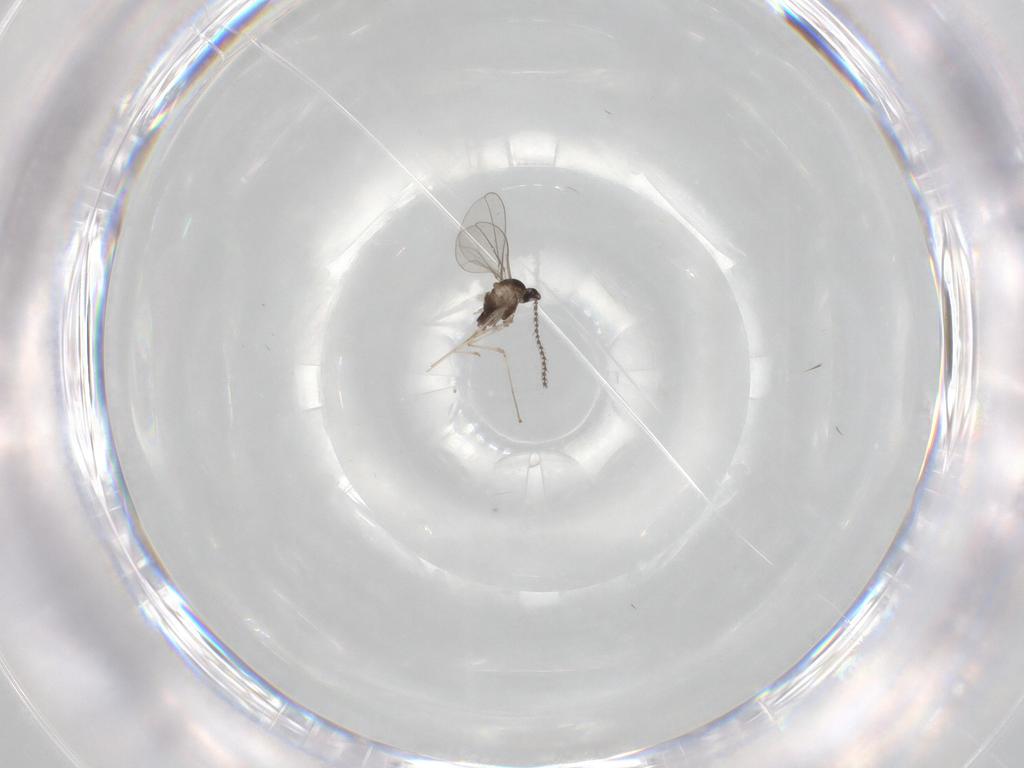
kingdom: Animalia
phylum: Arthropoda
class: Insecta
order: Diptera
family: Cecidomyiidae
